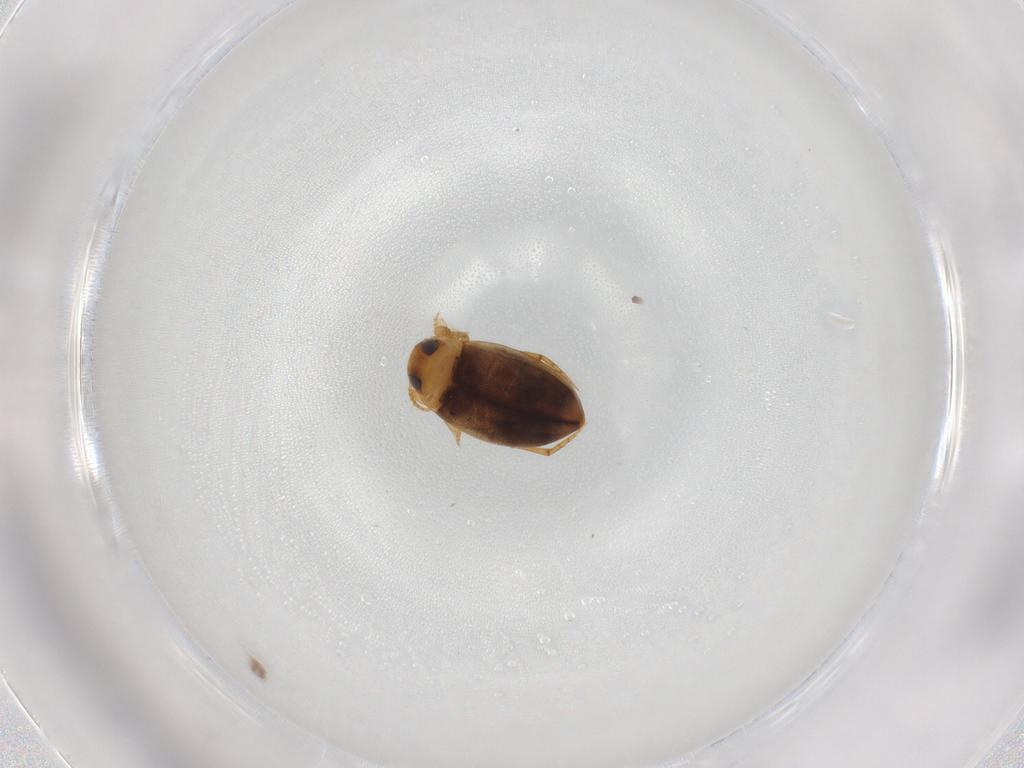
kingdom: Animalia
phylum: Arthropoda
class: Insecta
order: Coleoptera
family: Dytiscidae
